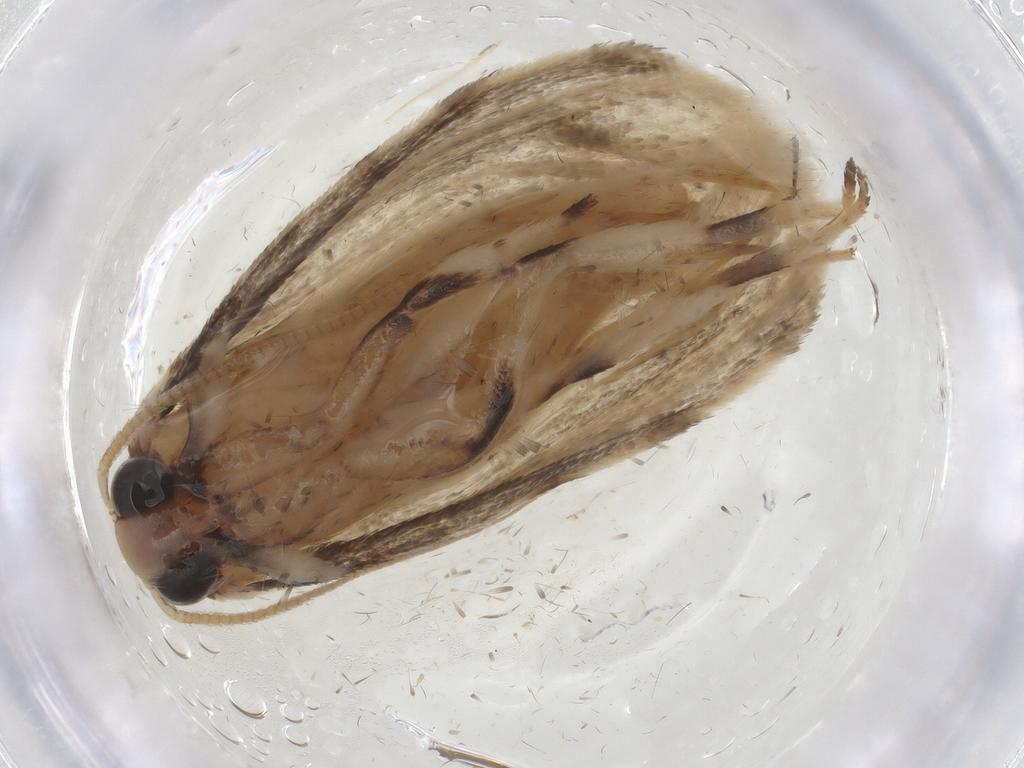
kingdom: Animalia
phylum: Arthropoda
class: Insecta
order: Lepidoptera
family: Tineidae
